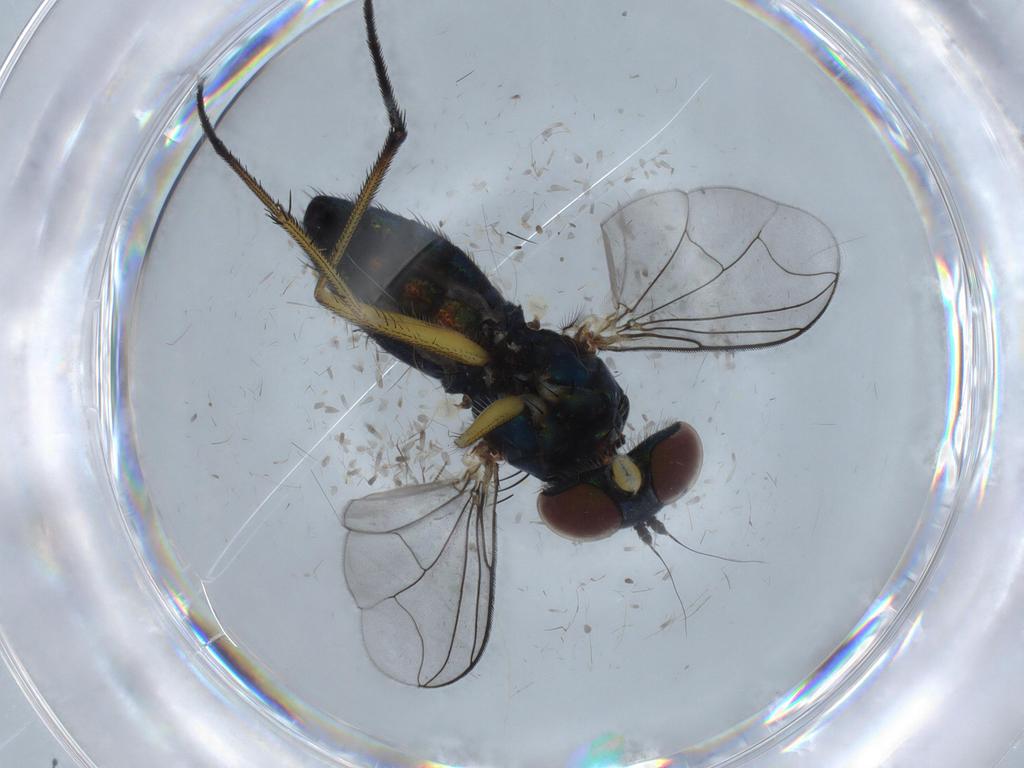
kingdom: Animalia
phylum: Arthropoda
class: Insecta
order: Diptera
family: Dolichopodidae
